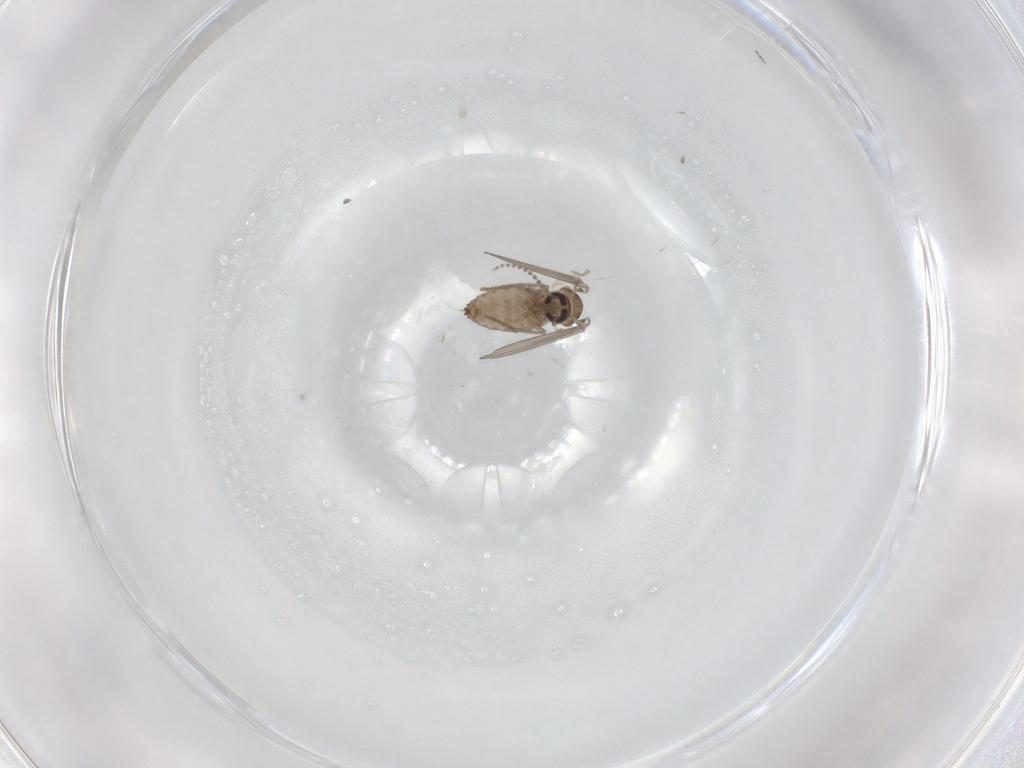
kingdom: Animalia
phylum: Arthropoda
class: Insecta
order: Diptera
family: Psychodidae
